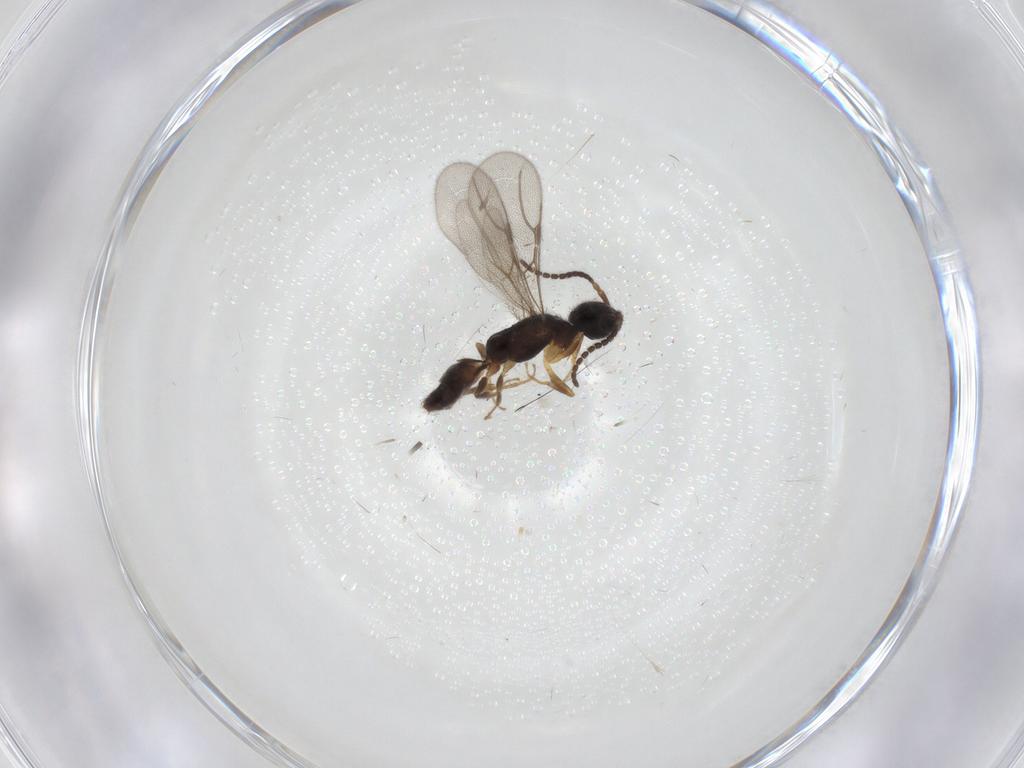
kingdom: Animalia
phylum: Arthropoda
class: Insecta
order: Hymenoptera
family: Bethylidae
